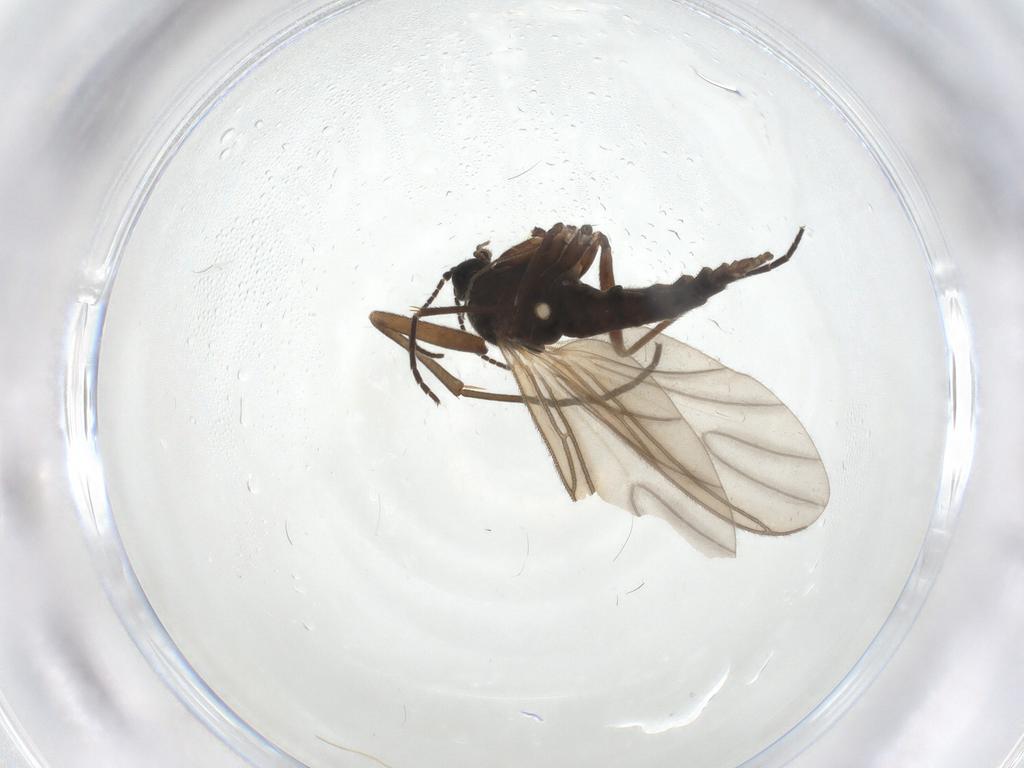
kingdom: Animalia
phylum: Arthropoda
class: Insecta
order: Diptera
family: Sciaridae
